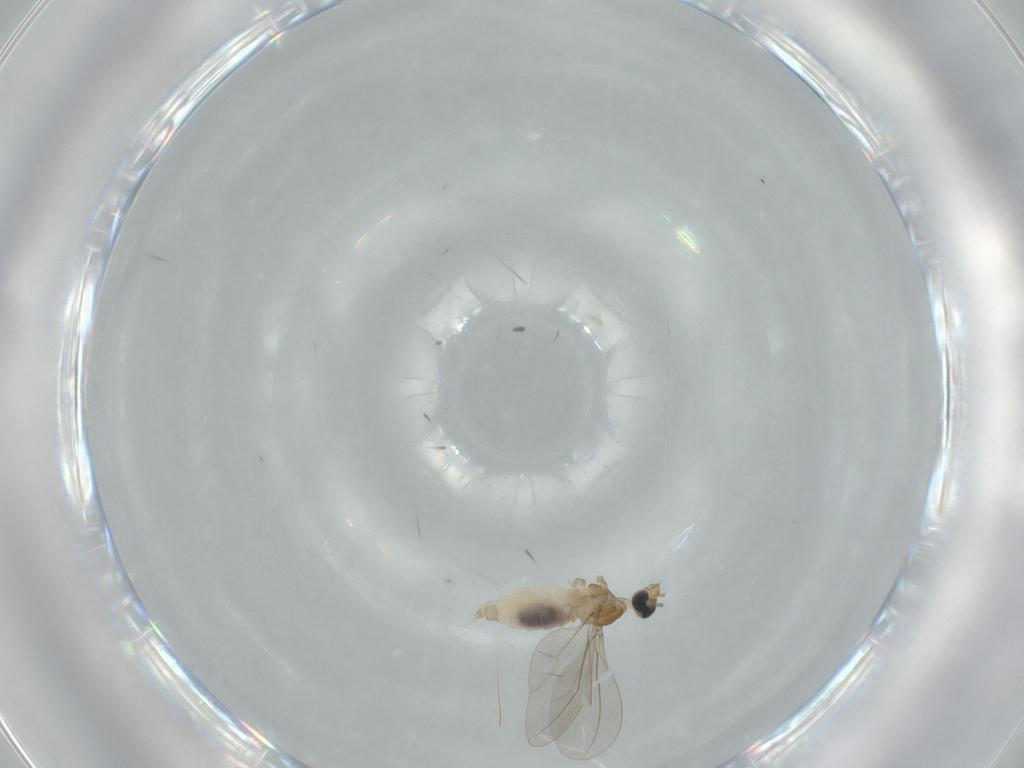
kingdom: Animalia
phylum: Arthropoda
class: Insecta
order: Diptera
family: Cecidomyiidae
